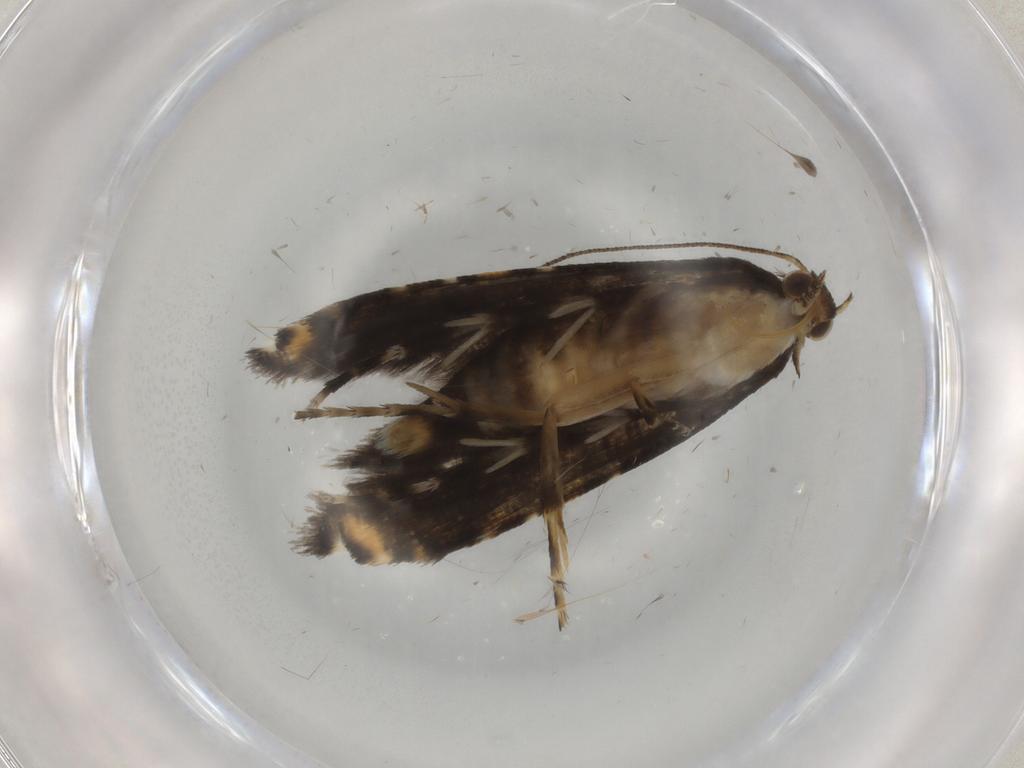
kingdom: Animalia
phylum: Arthropoda
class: Insecta
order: Lepidoptera
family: Glyphipterigidae
